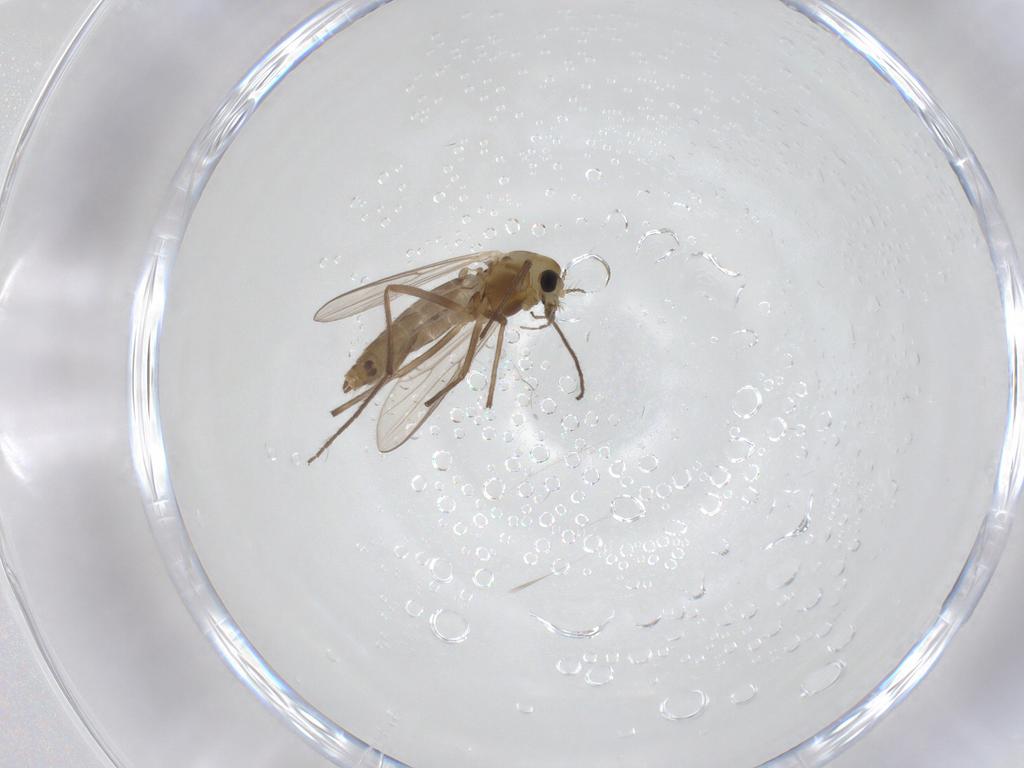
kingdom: Animalia
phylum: Arthropoda
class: Insecta
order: Diptera
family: Chironomidae
